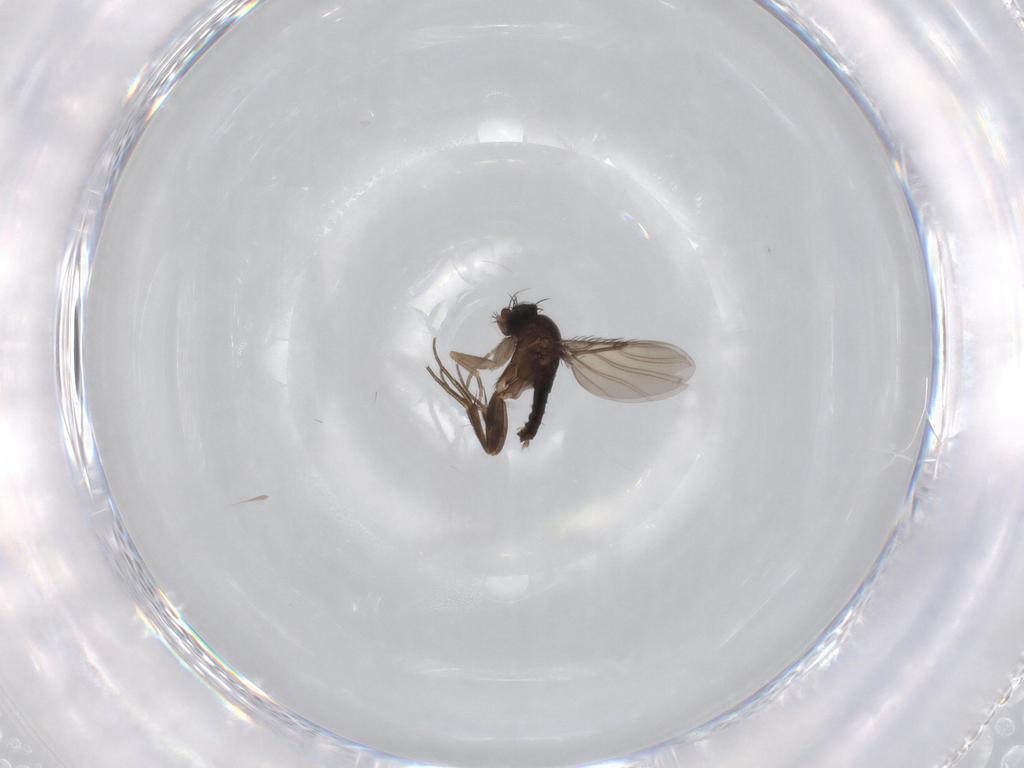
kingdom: Animalia
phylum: Arthropoda
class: Insecta
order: Diptera
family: Phoridae
